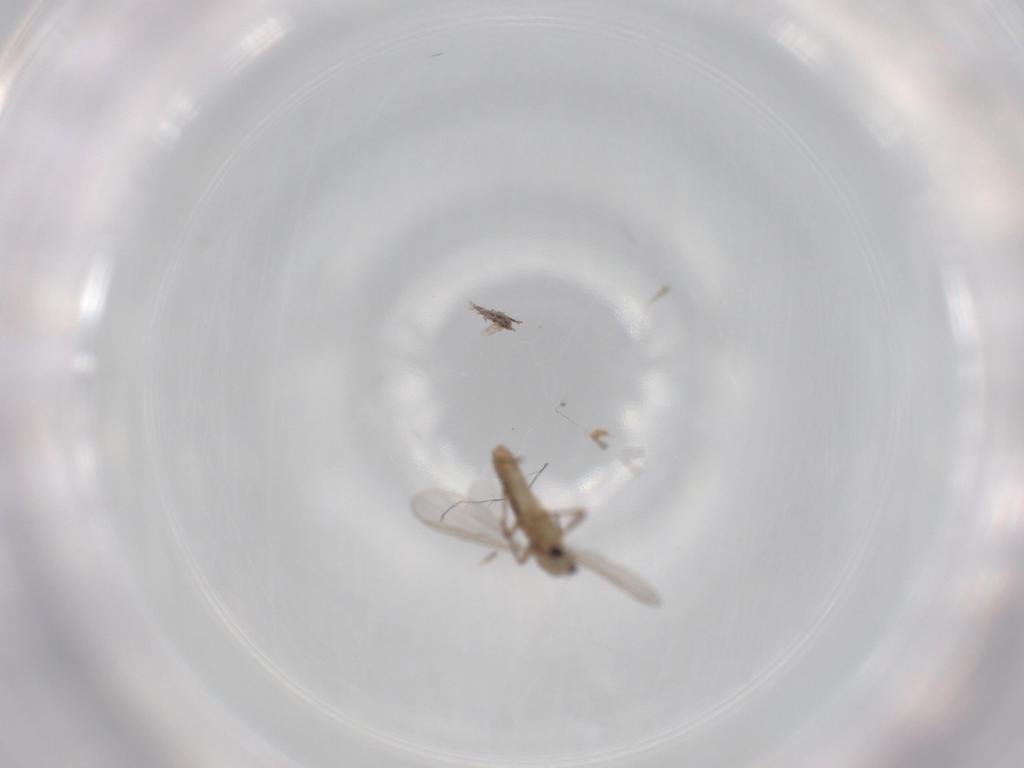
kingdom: Animalia
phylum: Arthropoda
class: Insecta
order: Diptera
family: Chironomidae
